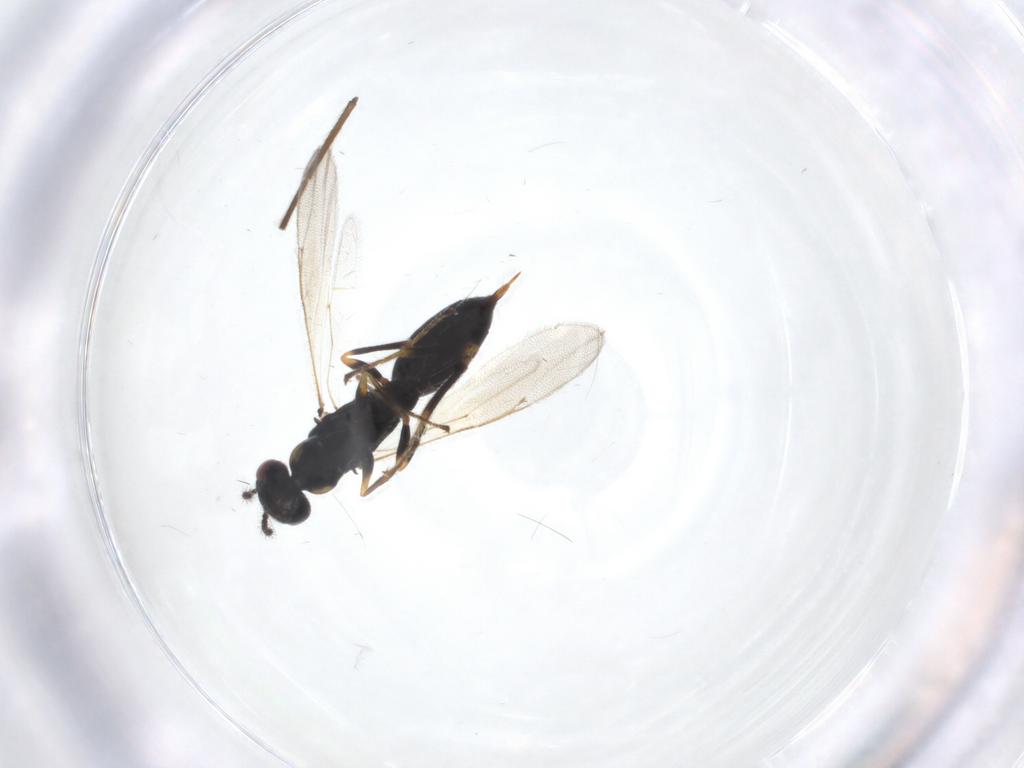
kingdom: Animalia
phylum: Arthropoda
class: Insecta
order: Hymenoptera
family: Eurytomidae
